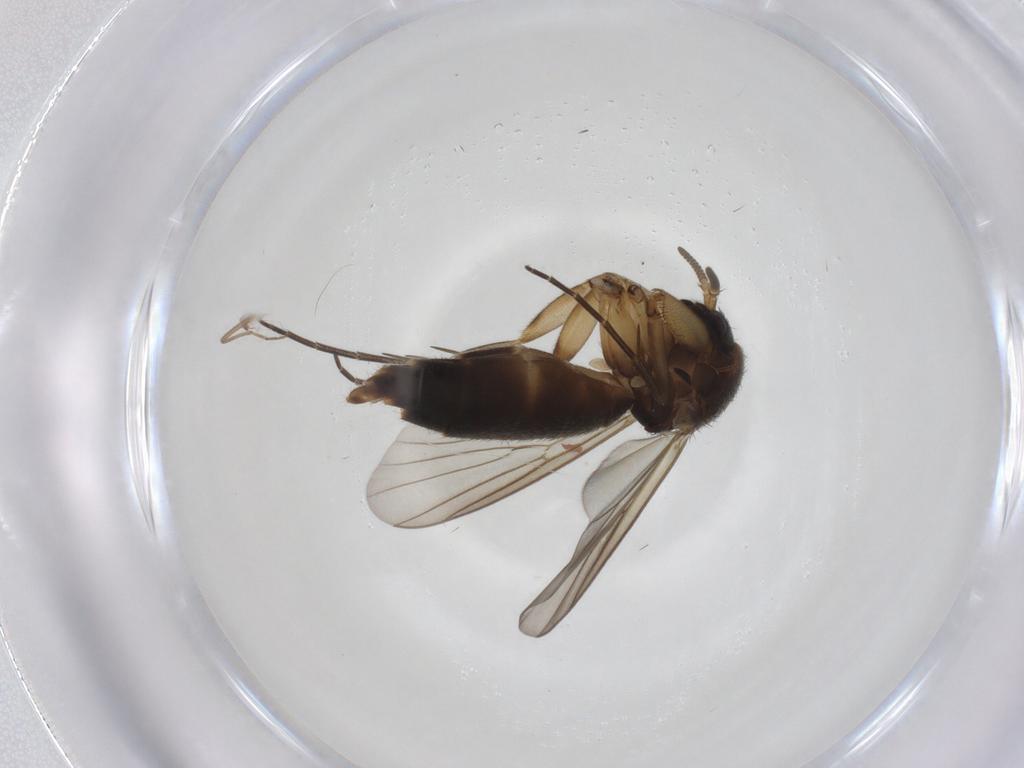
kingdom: Animalia
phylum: Arthropoda
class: Insecta
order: Diptera
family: Mycetophilidae
